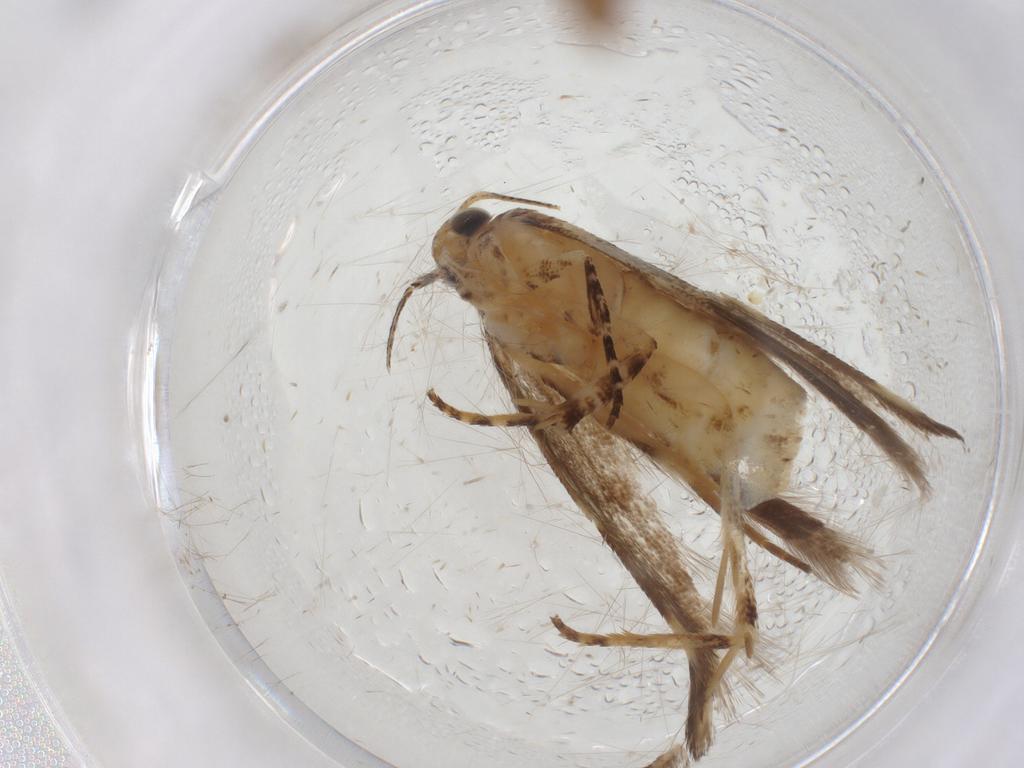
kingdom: Animalia
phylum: Arthropoda
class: Insecta
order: Lepidoptera
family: Gelechiidae
